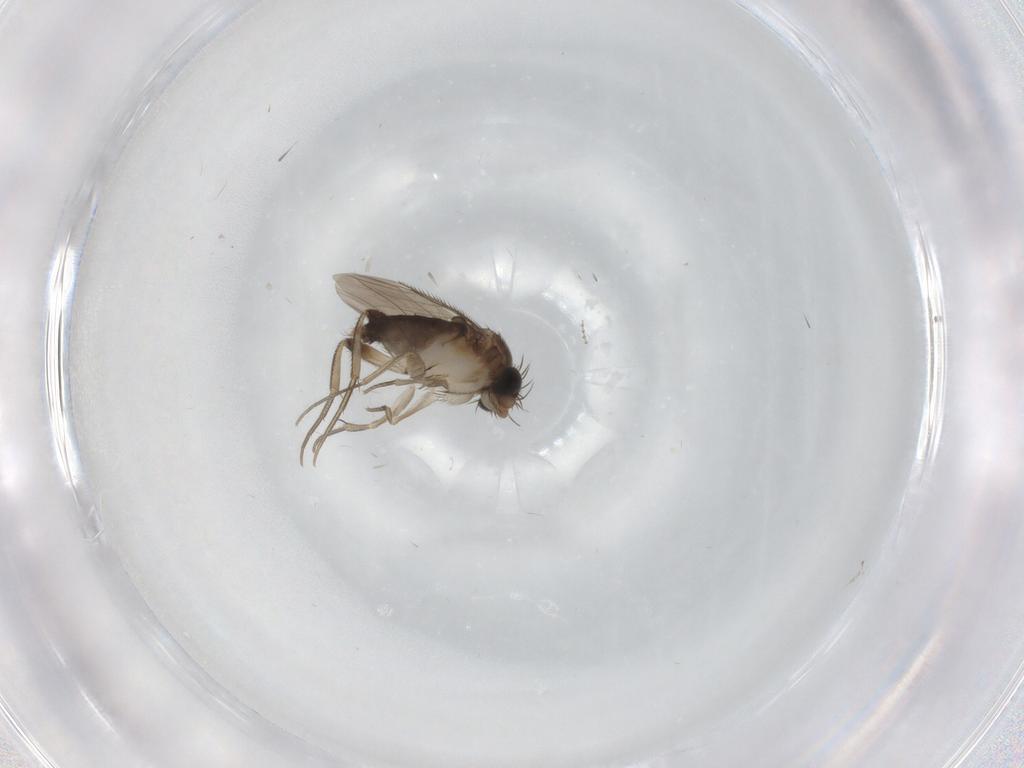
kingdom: Animalia
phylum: Arthropoda
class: Insecta
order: Diptera
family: Phoridae
